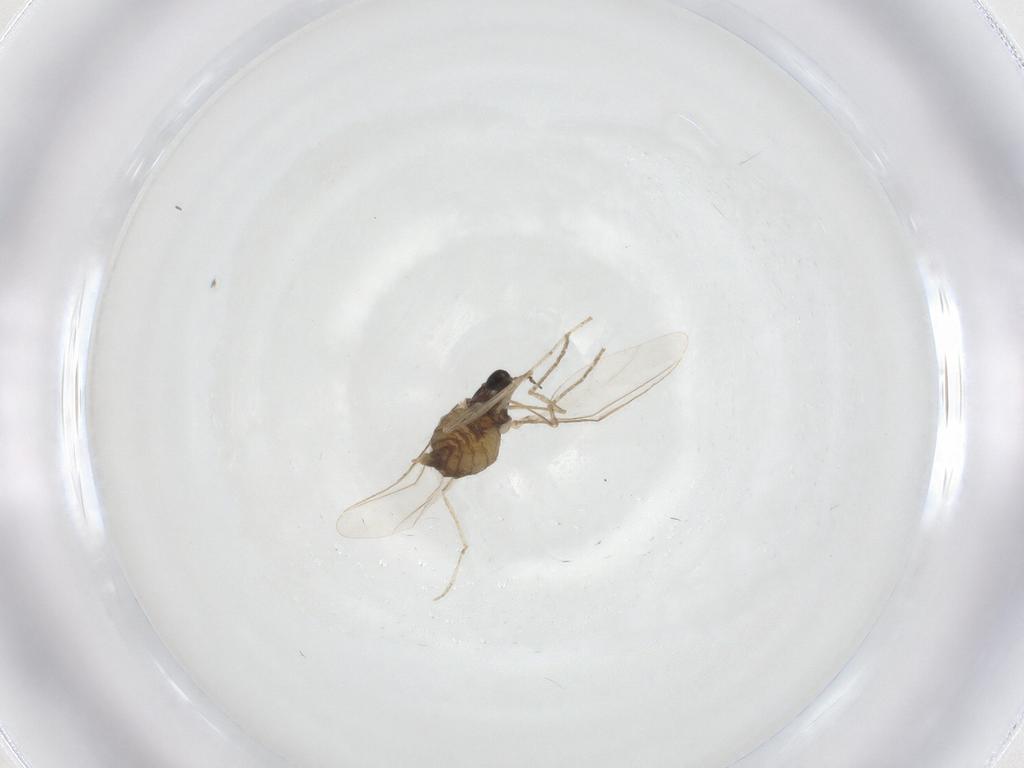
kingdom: Animalia
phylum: Arthropoda
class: Insecta
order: Diptera
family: Cecidomyiidae
